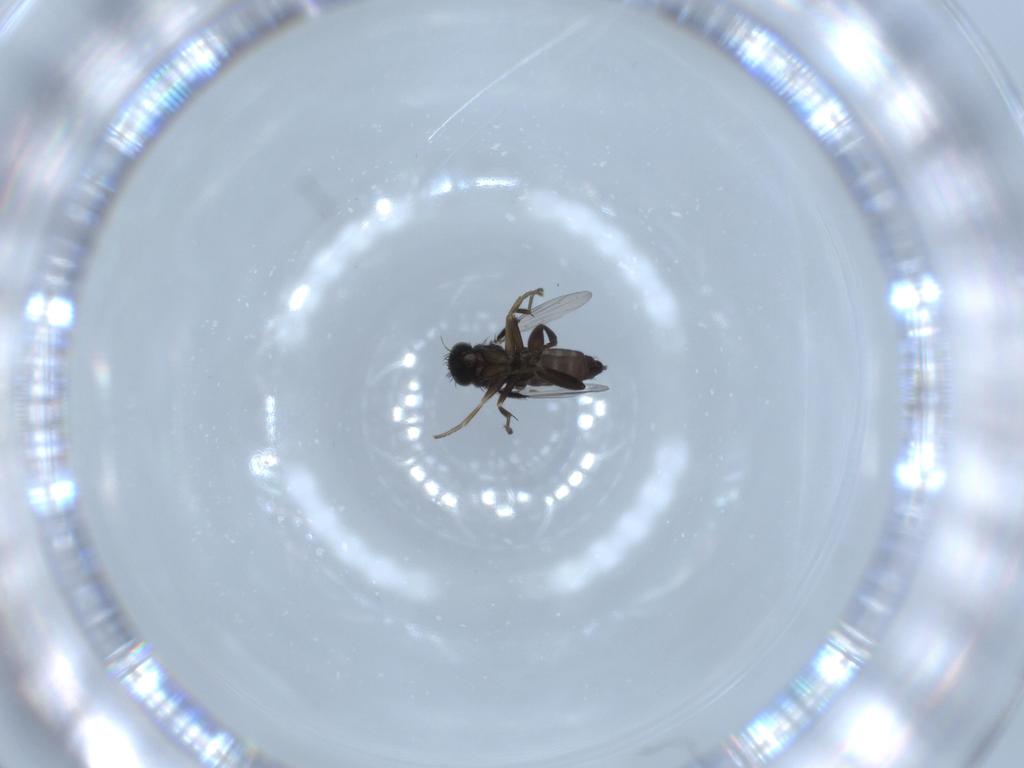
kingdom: Animalia
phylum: Arthropoda
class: Insecta
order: Diptera
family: Phoridae
